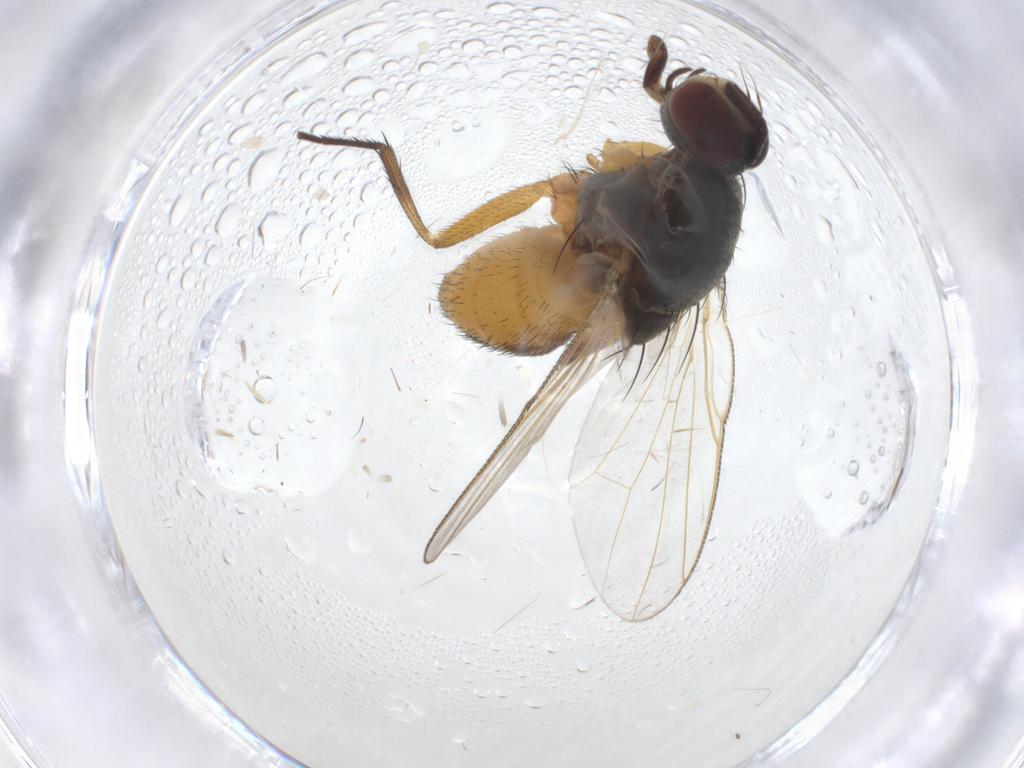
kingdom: Animalia
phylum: Arthropoda
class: Insecta
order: Diptera
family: Muscidae
